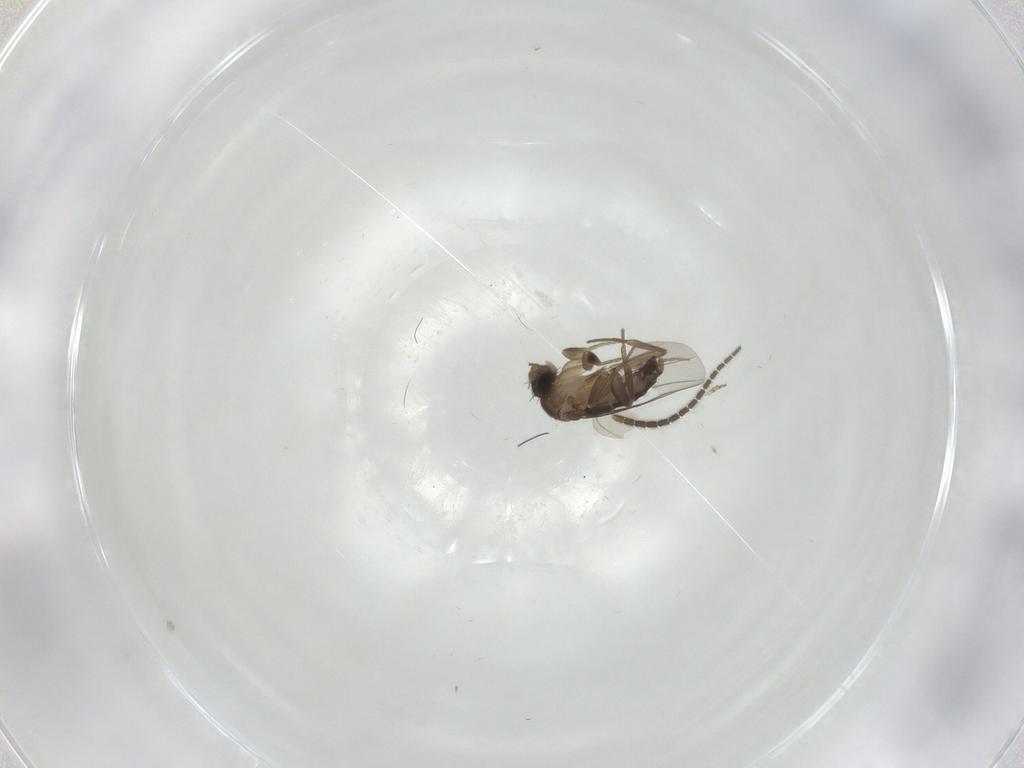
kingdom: Animalia
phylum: Arthropoda
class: Insecta
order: Diptera
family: Phoridae
